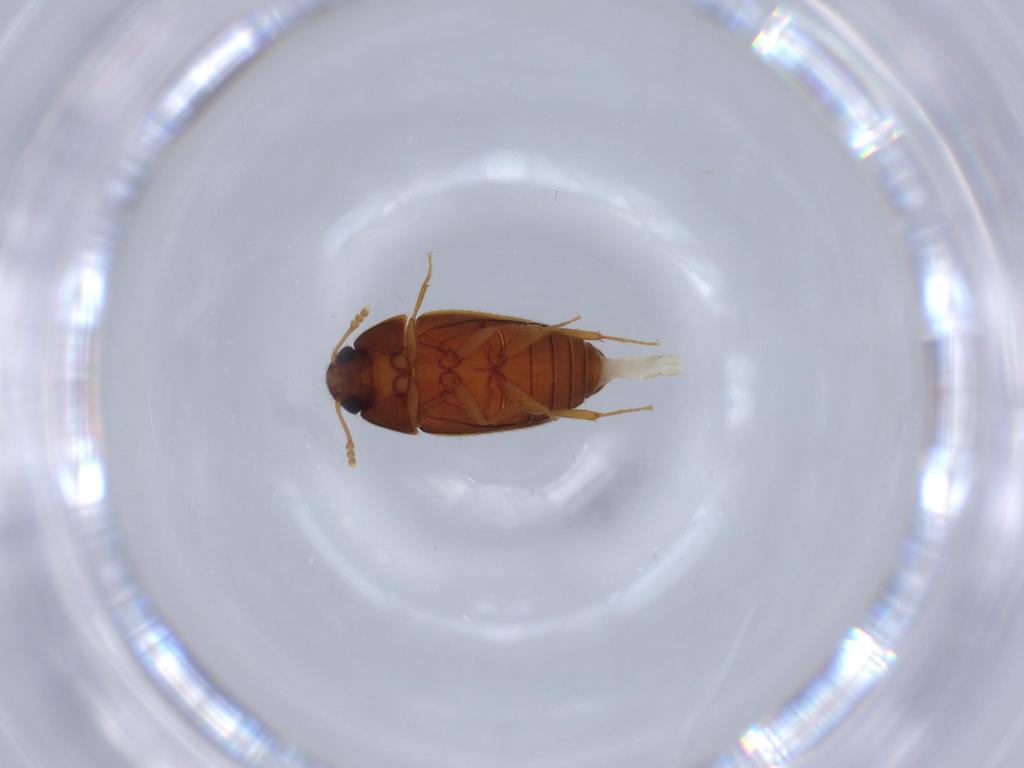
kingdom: Animalia
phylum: Arthropoda
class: Insecta
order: Coleoptera
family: Mycetophagidae
